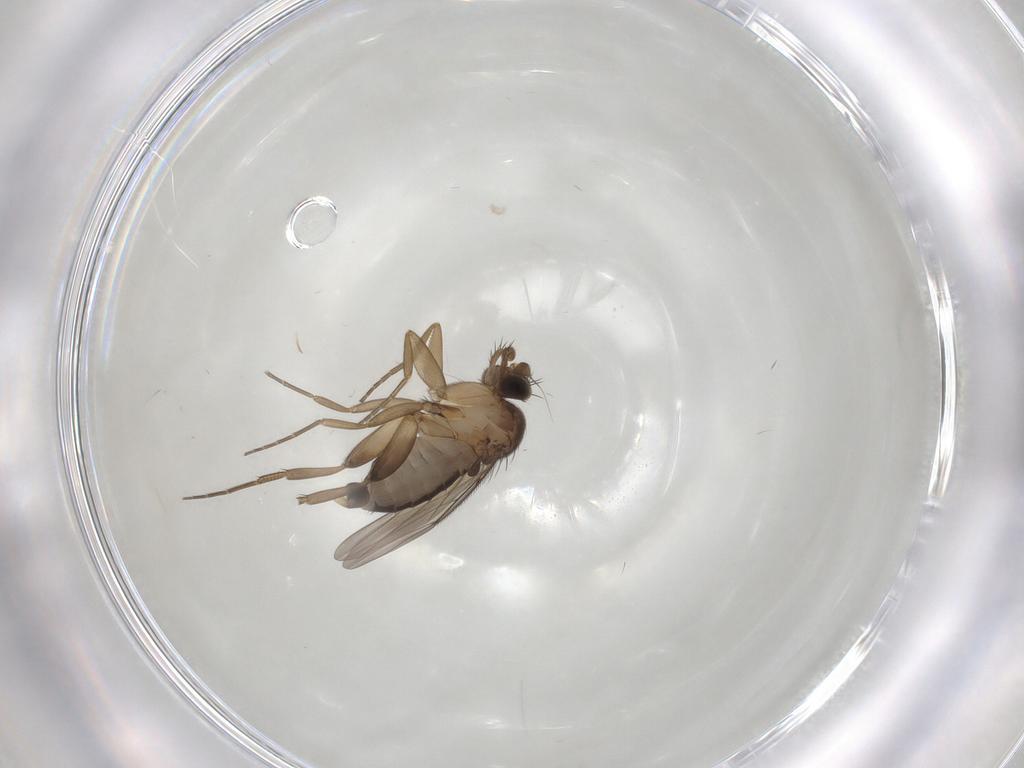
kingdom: Animalia
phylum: Arthropoda
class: Insecta
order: Diptera
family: Phoridae
